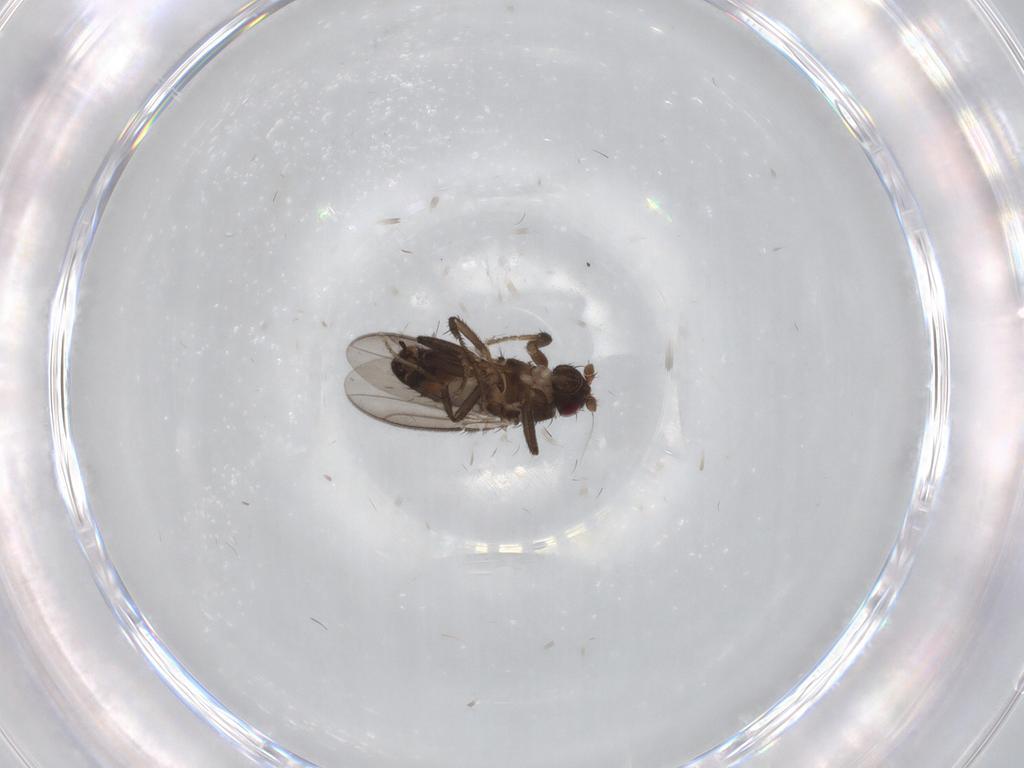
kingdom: Animalia
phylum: Arthropoda
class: Insecta
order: Diptera
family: Sphaeroceridae
